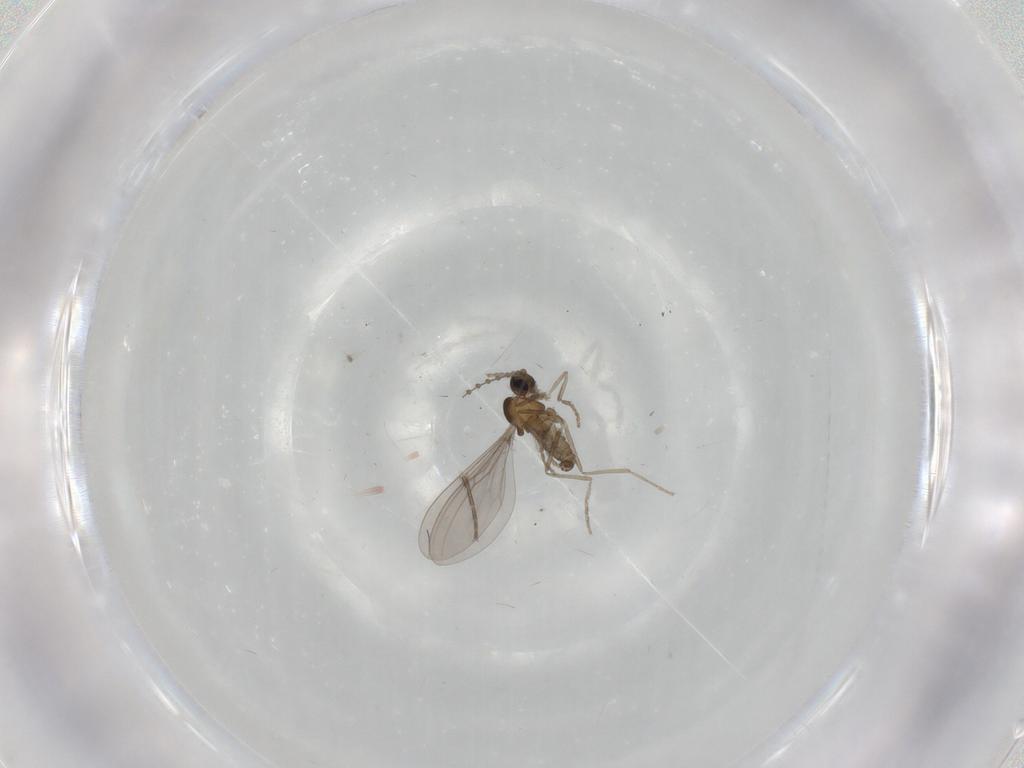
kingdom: Animalia
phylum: Arthropoda
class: Insecta
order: Diptera
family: Cecidomyiidae
